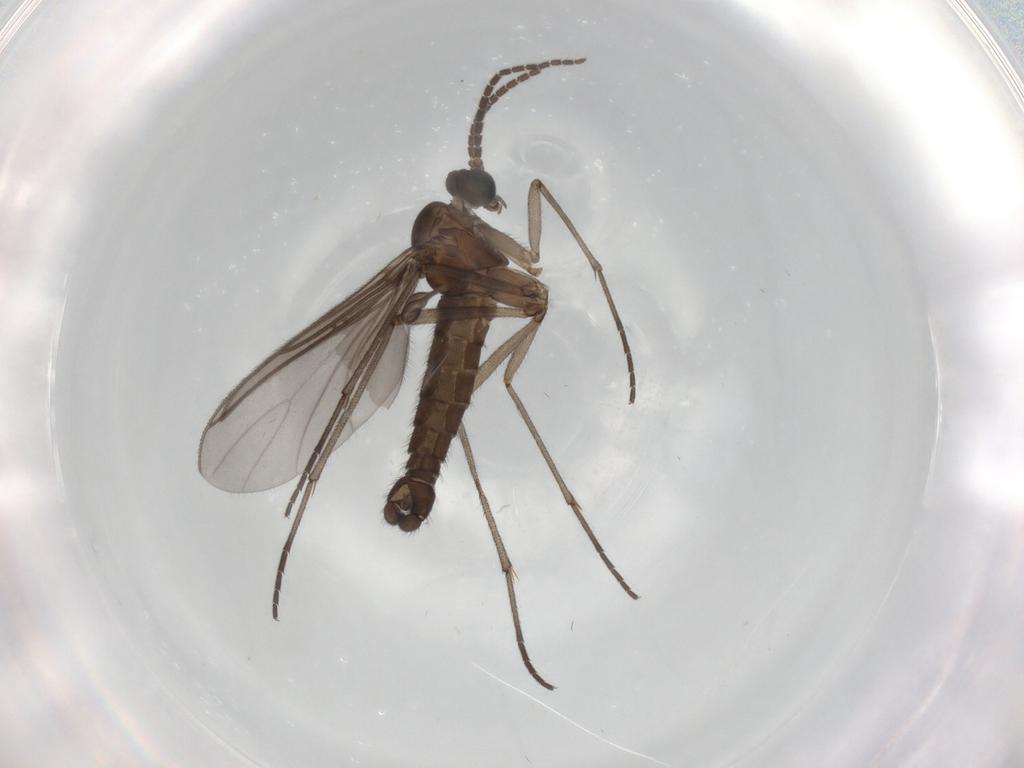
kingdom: Animalia
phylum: Arthropoda
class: Insecta
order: Diptera
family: Sciaridae
